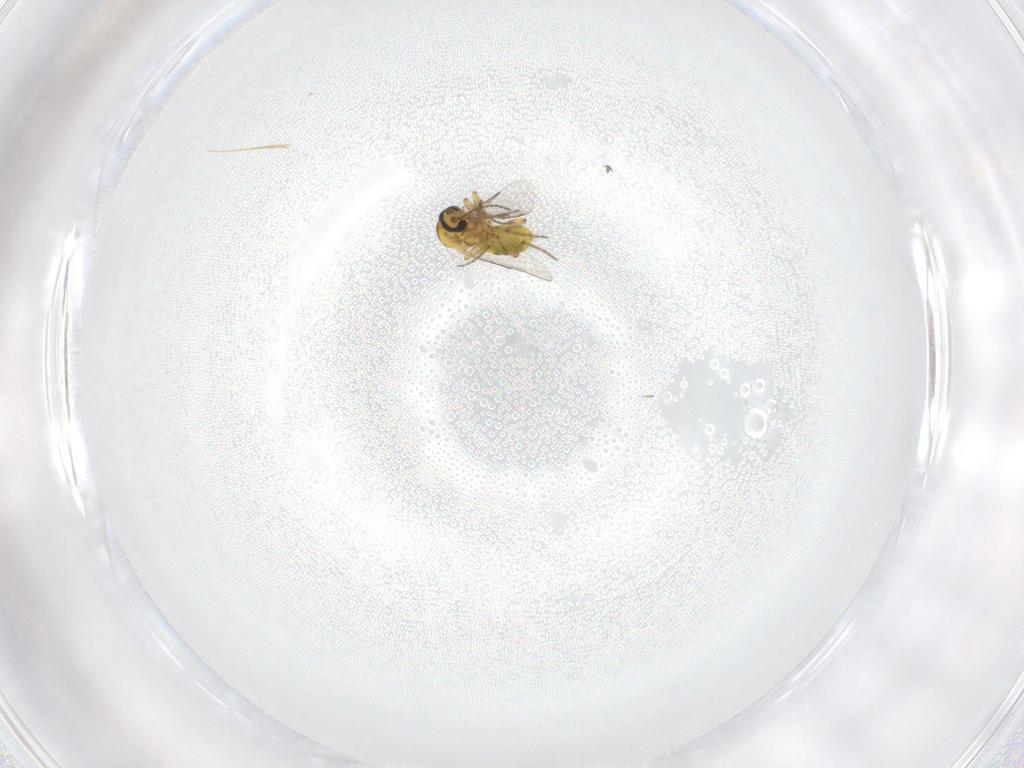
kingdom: Animalia
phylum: Arthropoda
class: Insecta
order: Diptera
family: Ceratopogonidae
